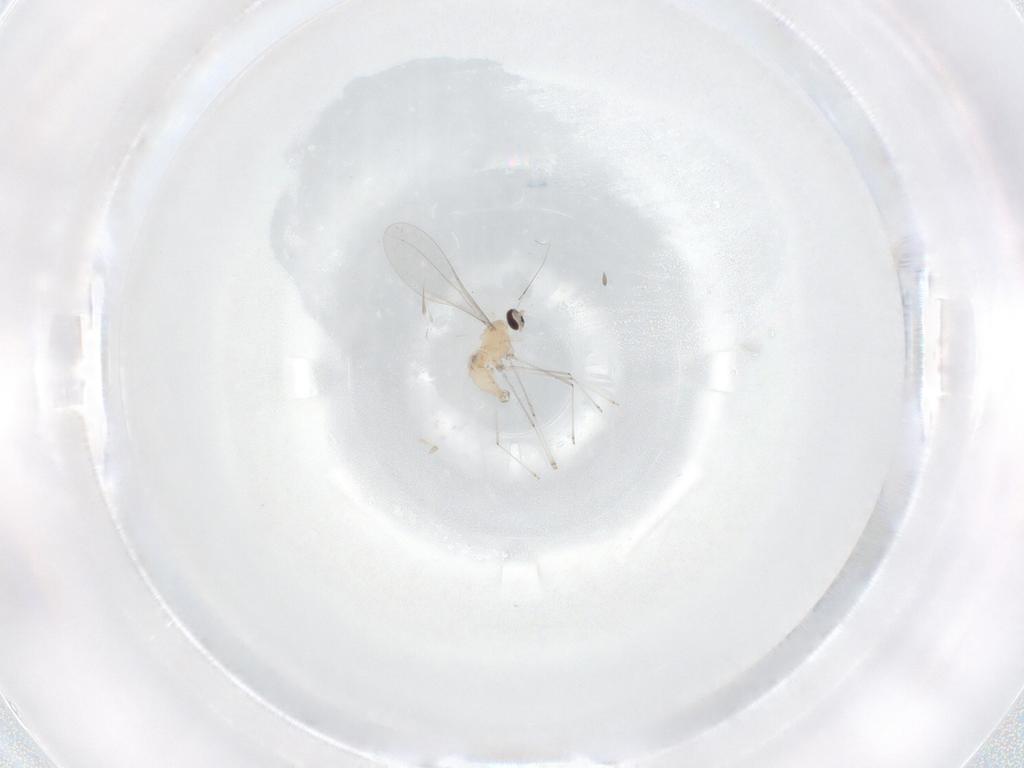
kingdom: Animalia
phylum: Arthropoda
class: Insecta
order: Diptera
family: Cecidomyiidae
